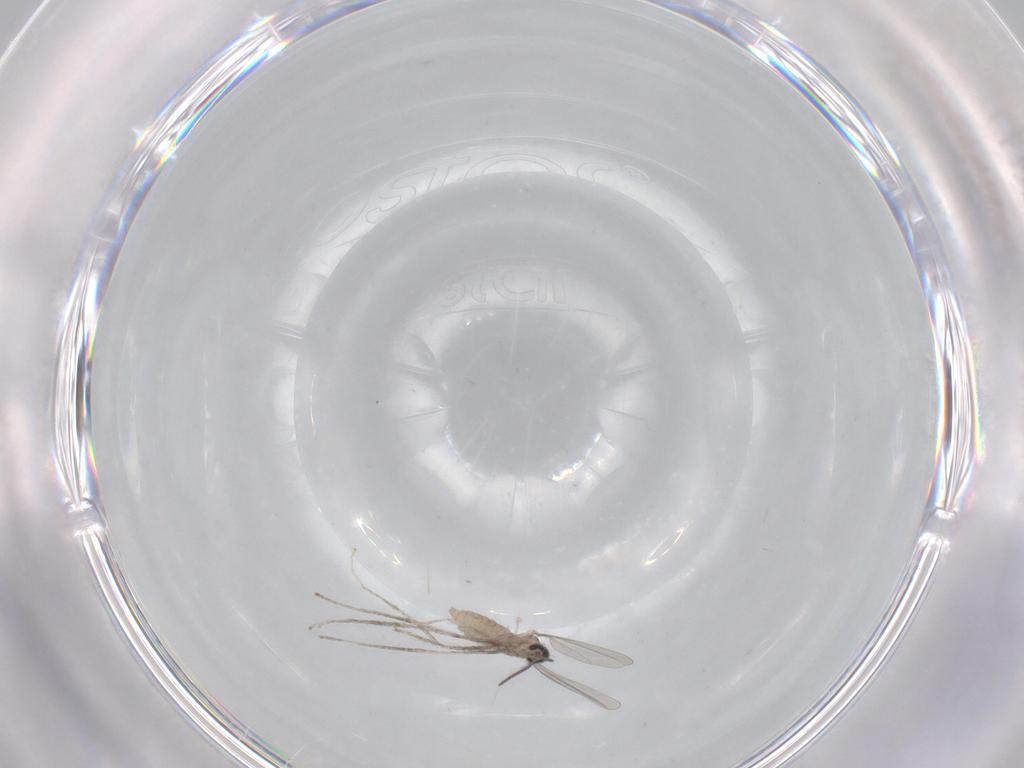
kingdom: Animalia
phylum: Arthropoda
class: Insecta
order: Diptera
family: Cecidomyiidae
